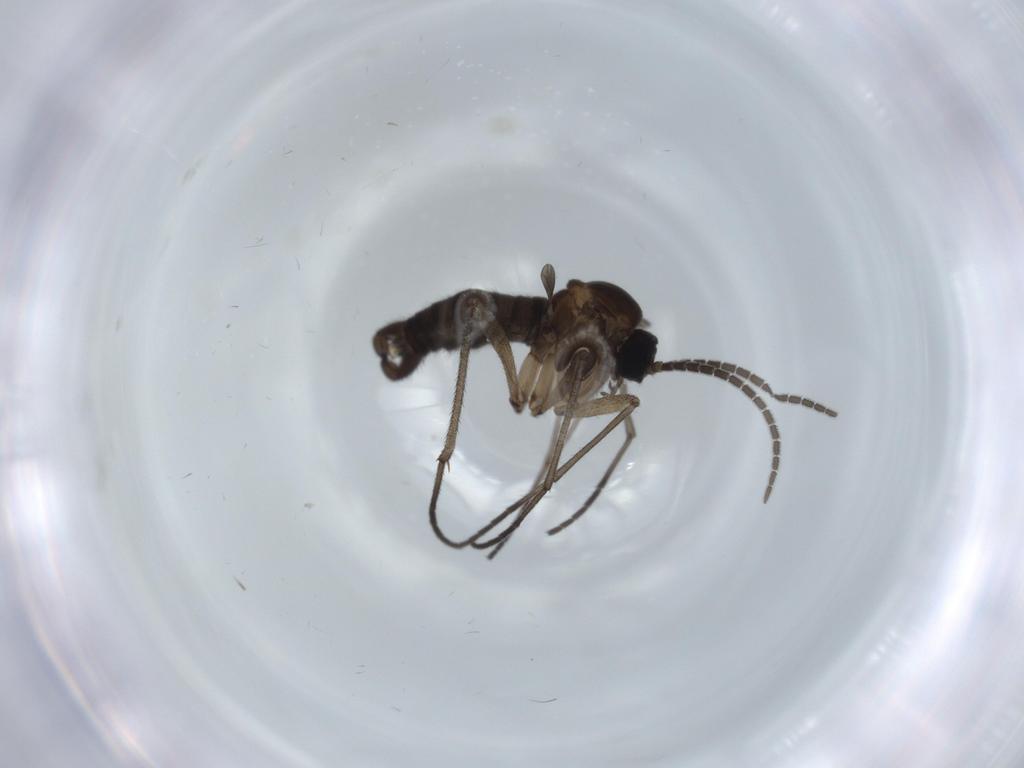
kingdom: Animalia
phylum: Arthropoda
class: Insecta
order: Diptera
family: Sciaridae
